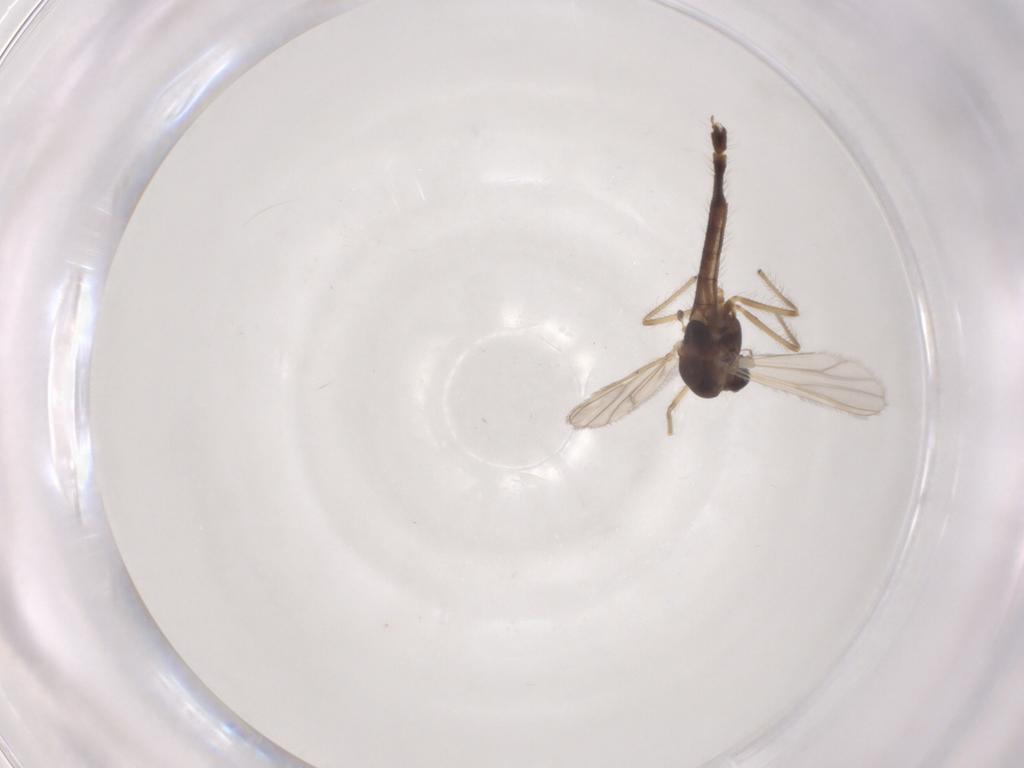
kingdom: Animalia
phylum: Arthropoda
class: Insecta
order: Diptera
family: Chironomidae
